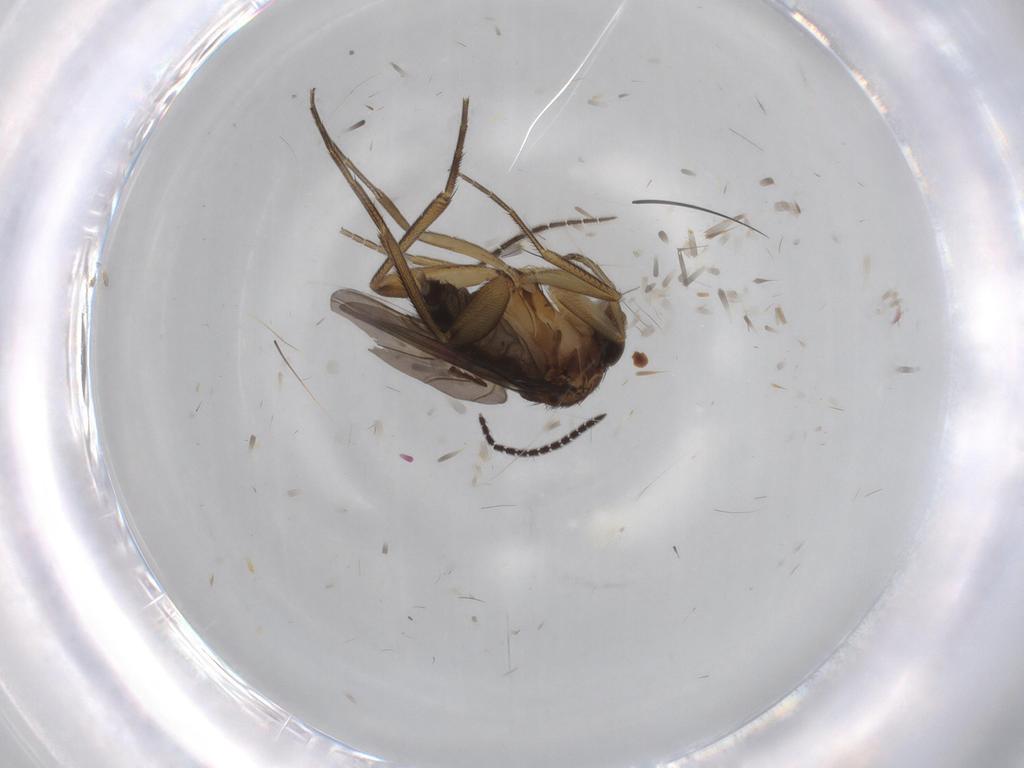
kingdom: Animalia
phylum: Arthropoda
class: Insecta
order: Diptera
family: Phoridae
